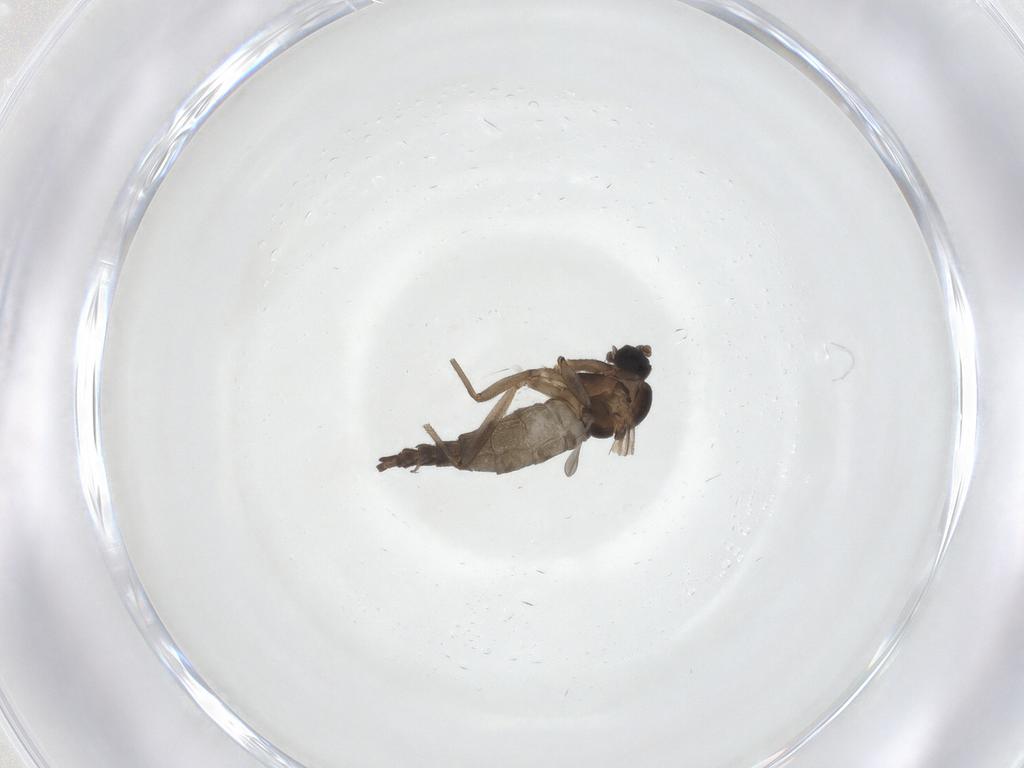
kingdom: Animalia
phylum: Arthropoda
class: Insecta
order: Diptera
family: Sciaridae
